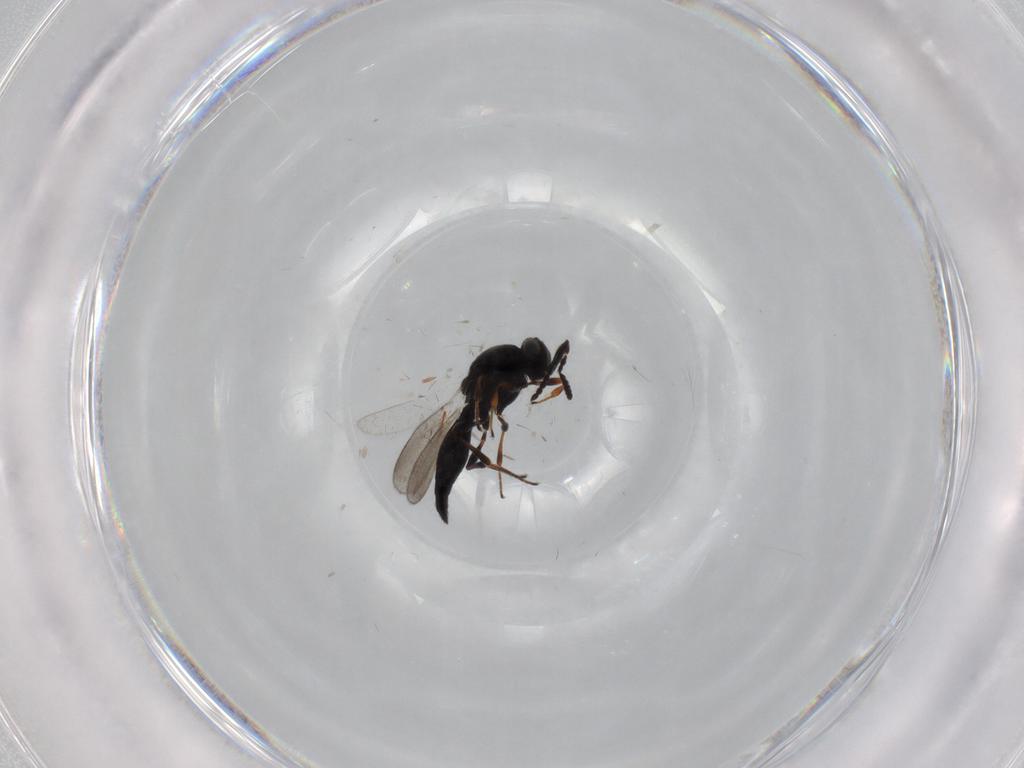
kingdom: Animalia
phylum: Arthropoda
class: Insecta
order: Hymenoptera
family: Platygastridae
